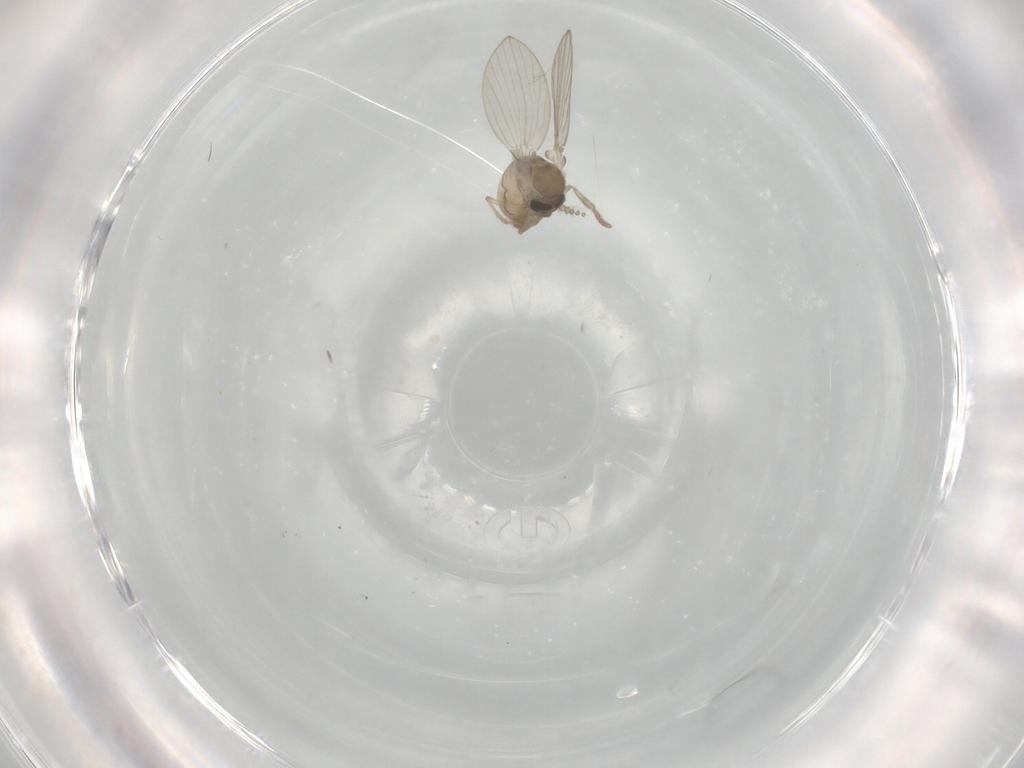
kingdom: Animalia
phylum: Arthropoda
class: Insecta
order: Diptera
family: Psychodidae
